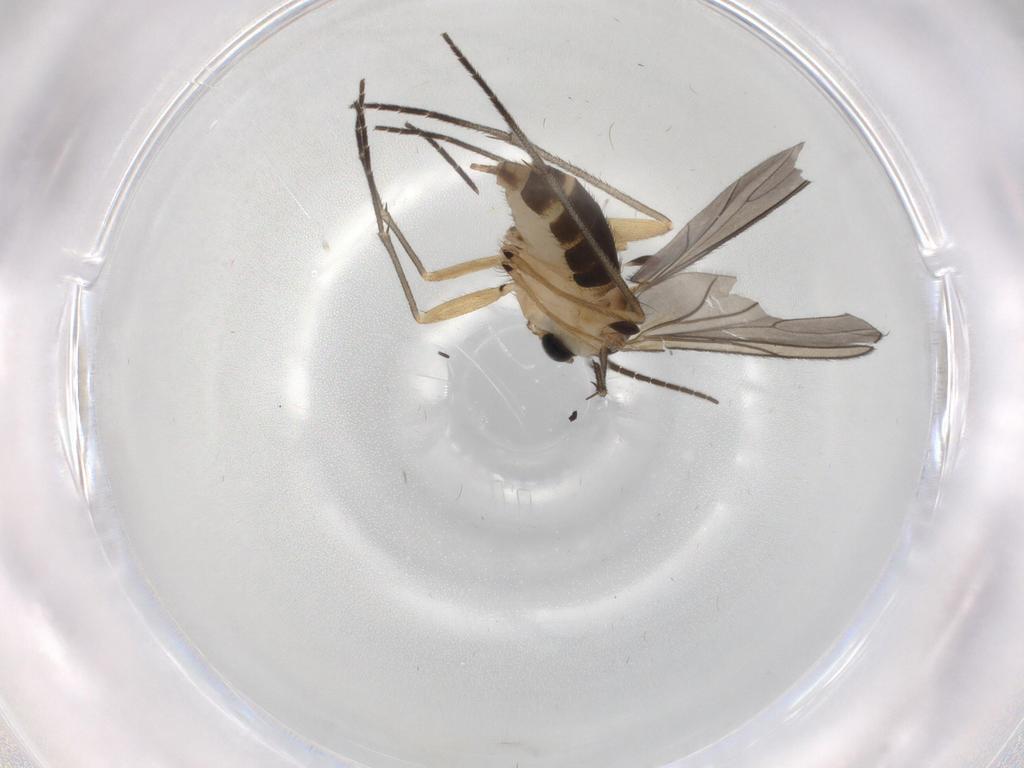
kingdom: Animalia
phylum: Arthropoda
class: Insecta
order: Diptera
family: Sciaridae
